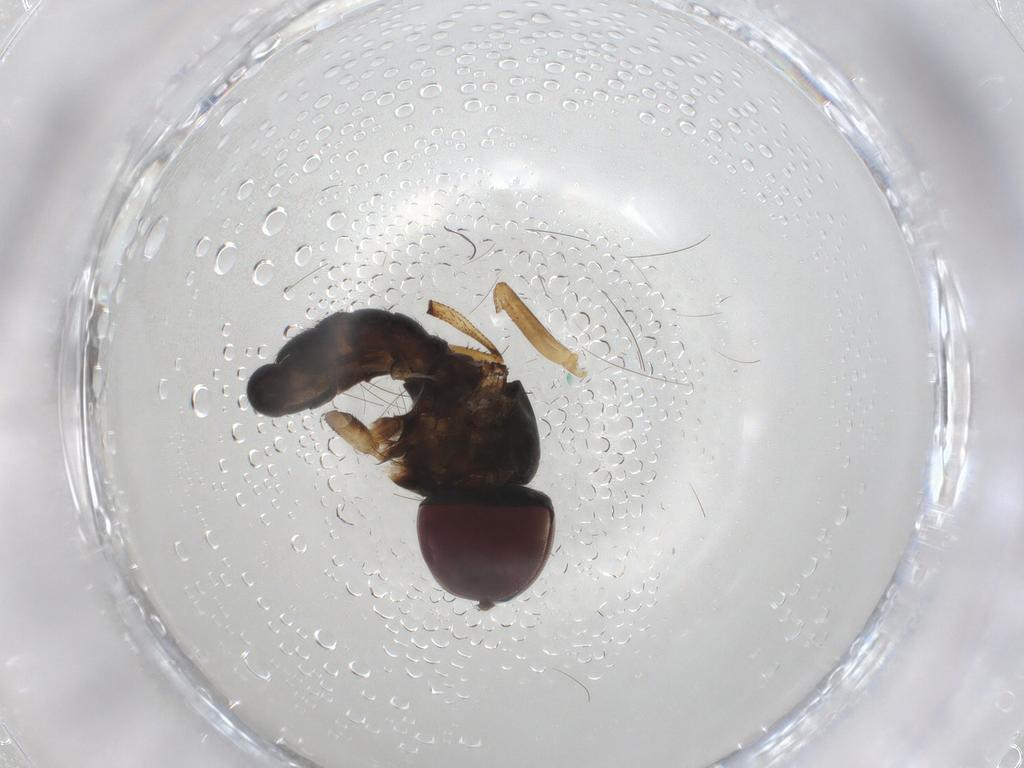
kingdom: Animalia
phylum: Arthropoda
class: Insecta
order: Diptera
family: Pipunculidae
